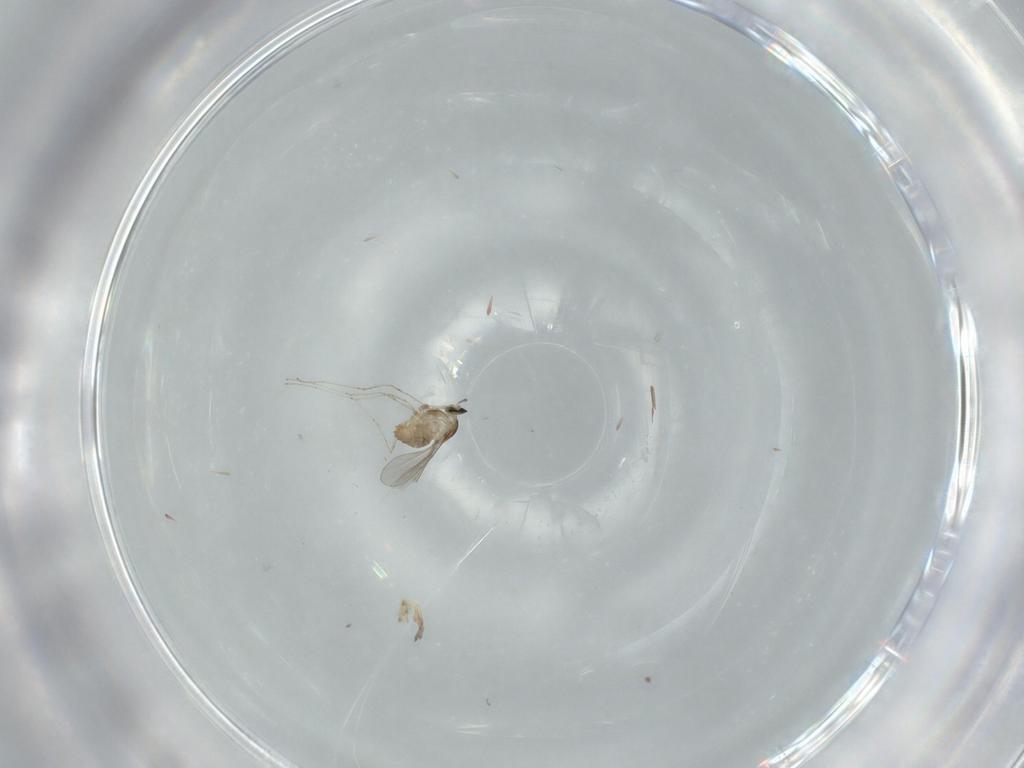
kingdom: Animalia
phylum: Arthropoda
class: Insecta
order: Diptera
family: Cecidomyiidae
